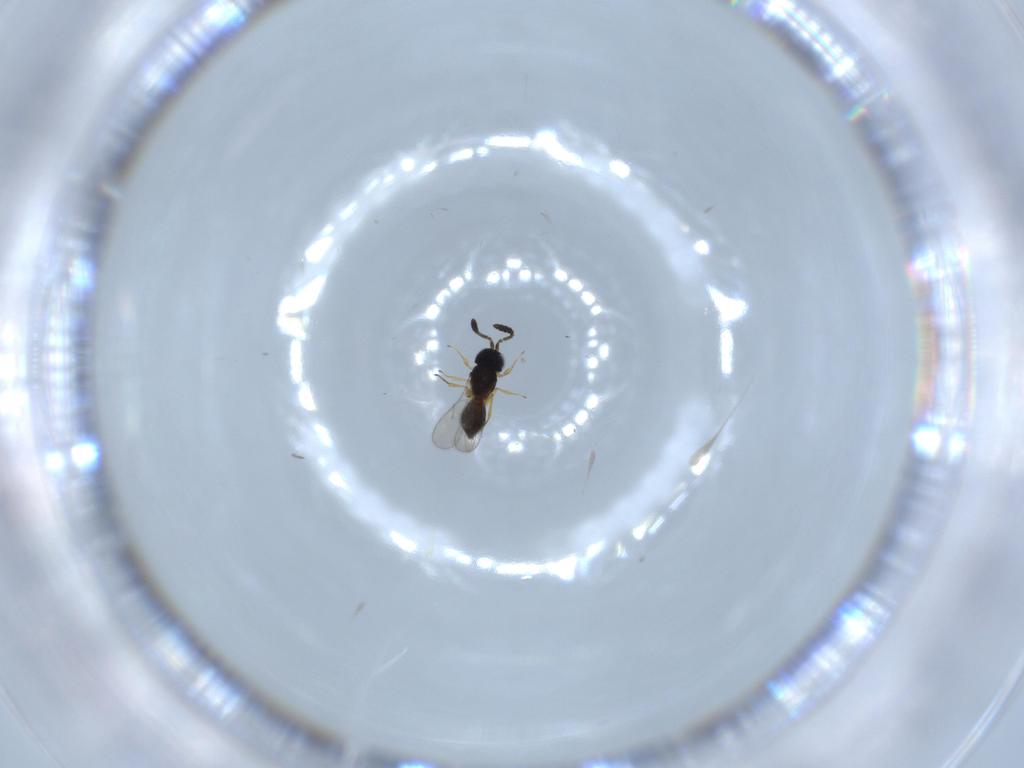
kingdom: Animalia
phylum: Arthropoda
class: Insecta
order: Hymenoptera
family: Scelionidae
